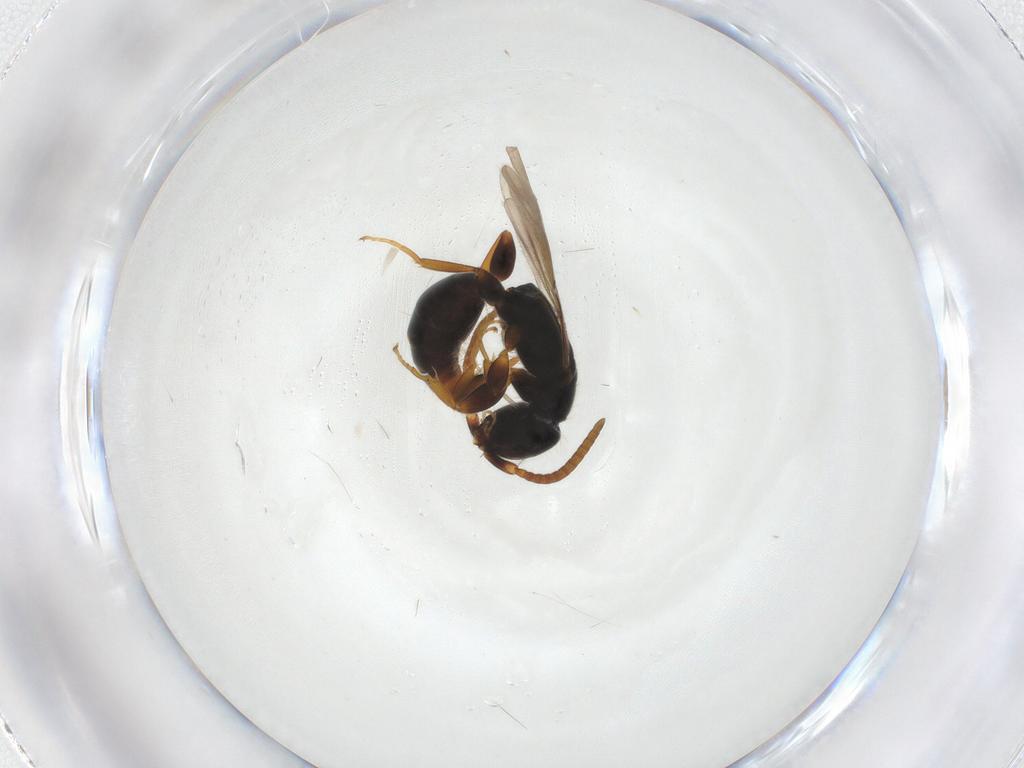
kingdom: Animalia
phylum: Arthropoda
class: Insecta
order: Hymenoptera
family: Bethylidae
